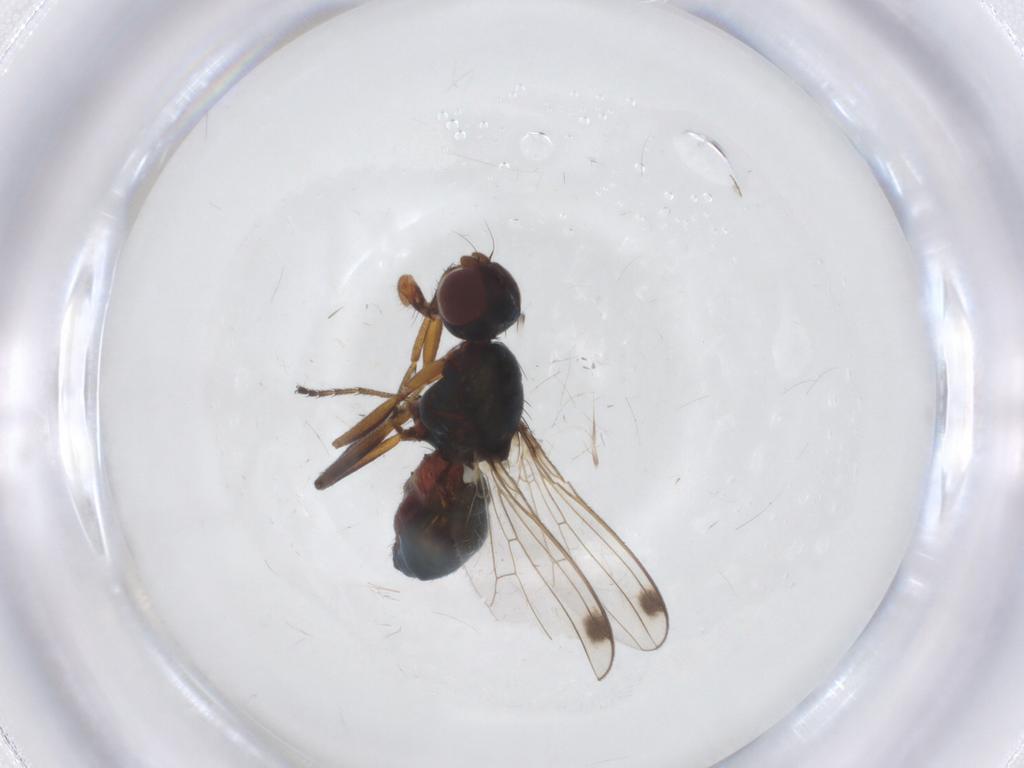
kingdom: Animalia
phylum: Arthropoda
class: Insecta
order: Diptera
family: Sepsidae
